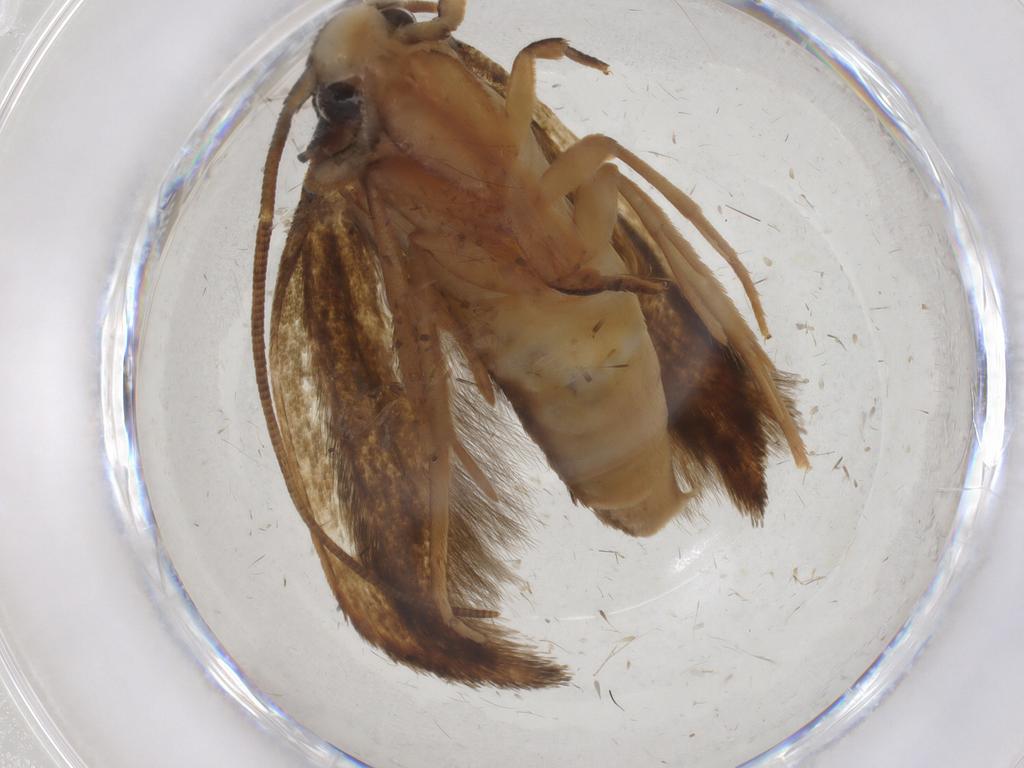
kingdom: Animalia
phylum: Arthropoda
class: Insecta
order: Lepidoptera
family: Tineidae
